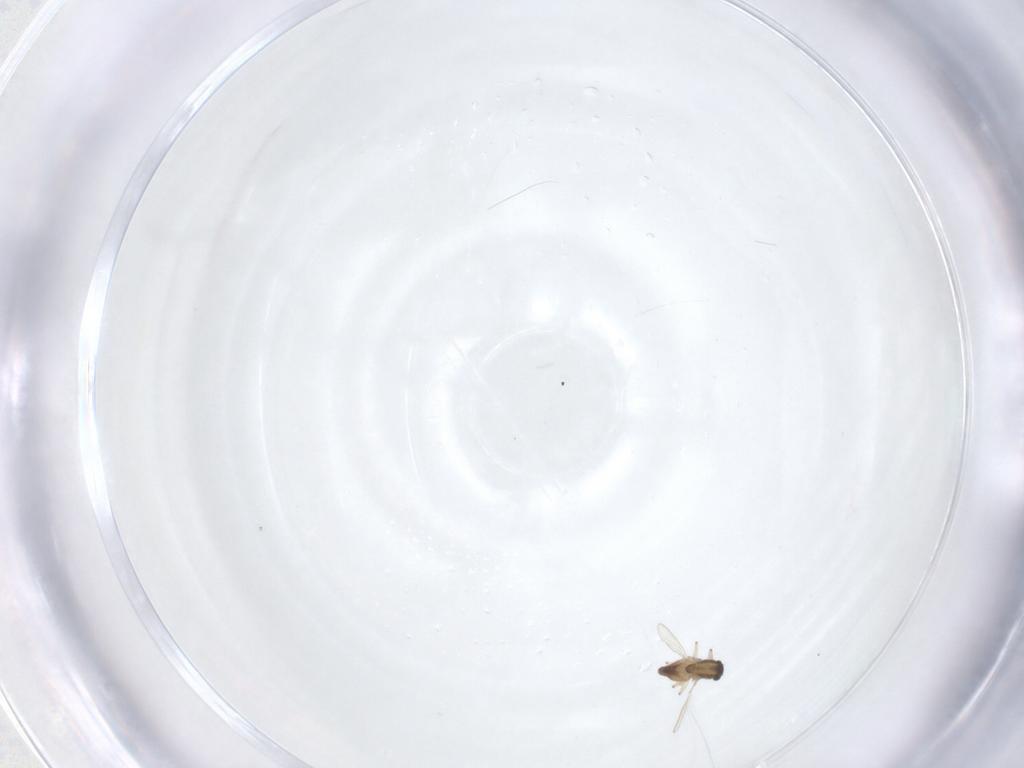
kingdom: Animalia
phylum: Arthropoda
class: Insecta
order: Diptera
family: Chironomidae
